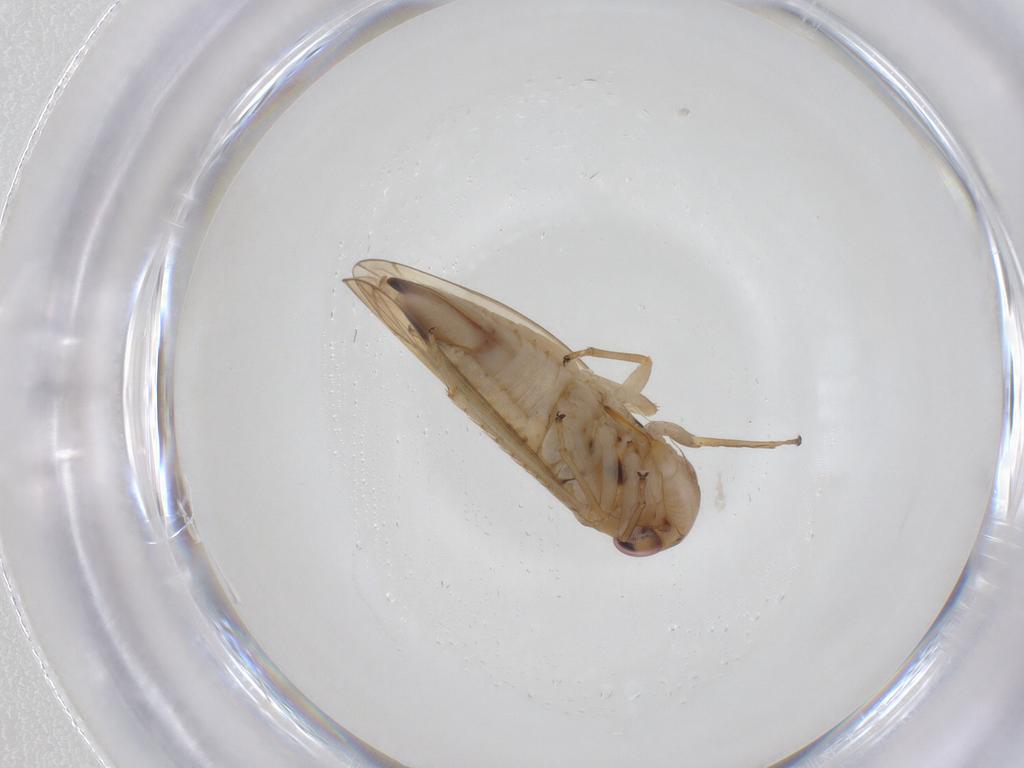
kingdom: Animalia
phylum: Arthropoda
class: Insecta
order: Hemiptera
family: Cicadellidae
